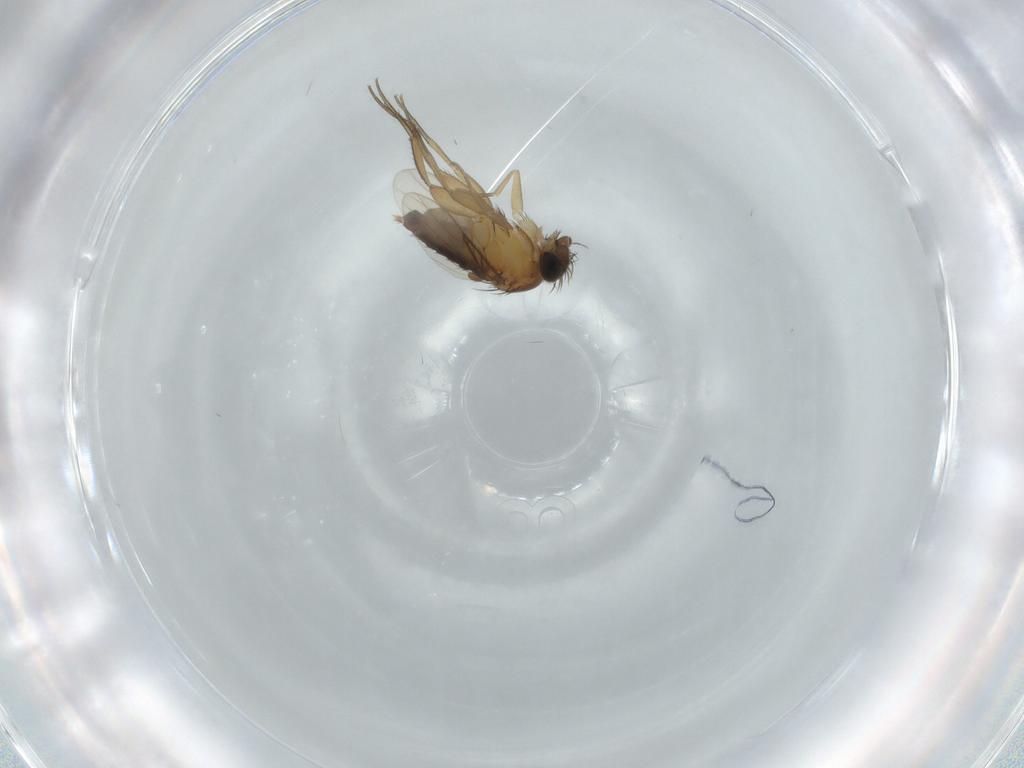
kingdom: Animalia
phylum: Arthropoda
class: Insecta
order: Diptera
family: Phoridae
